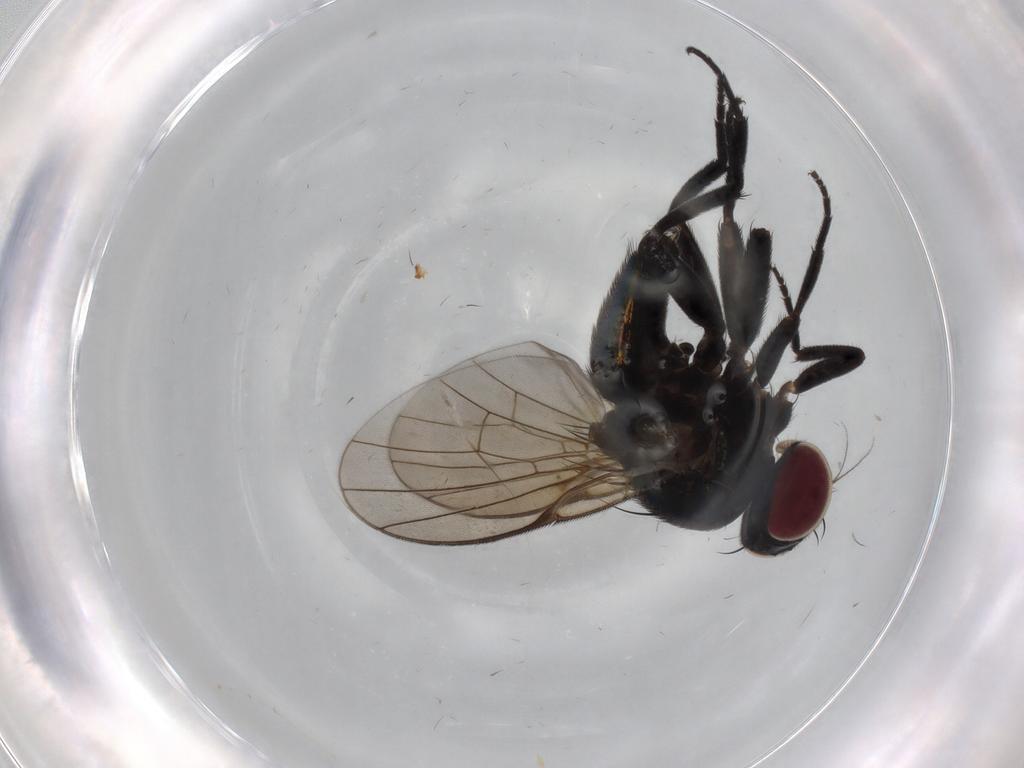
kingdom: Animalia
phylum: Arthropoda
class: Insecta
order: Diptera
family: Agromyzidae
